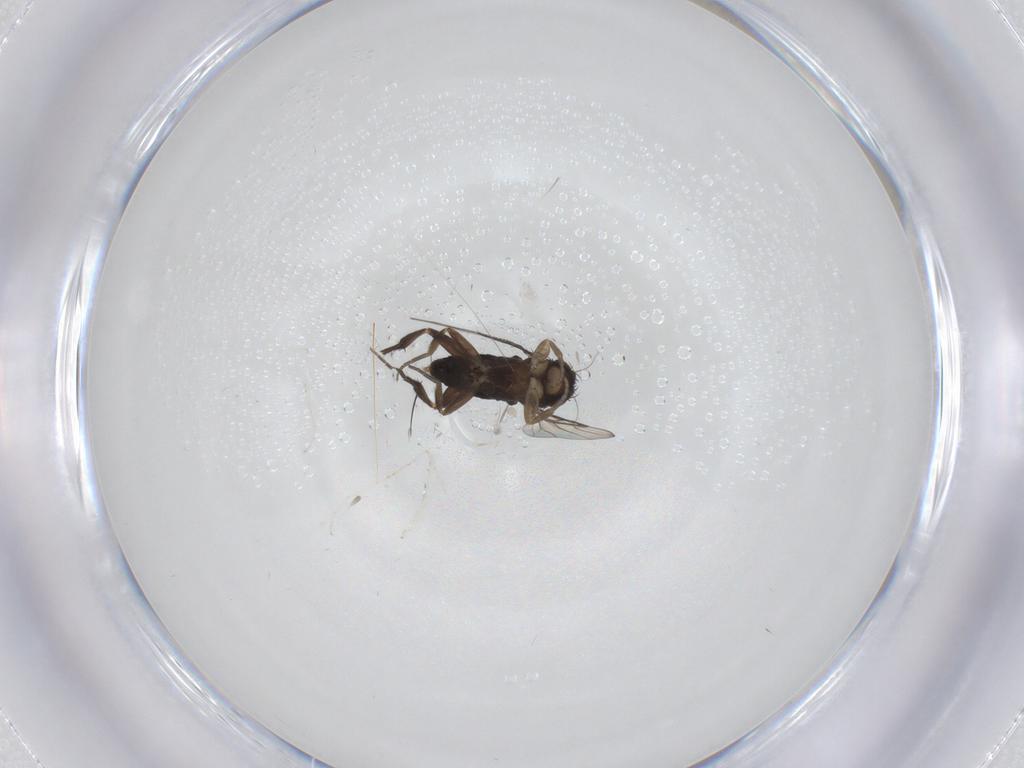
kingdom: Animalia
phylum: Arthropoda
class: Insecta
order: Diptera
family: Phoridae
